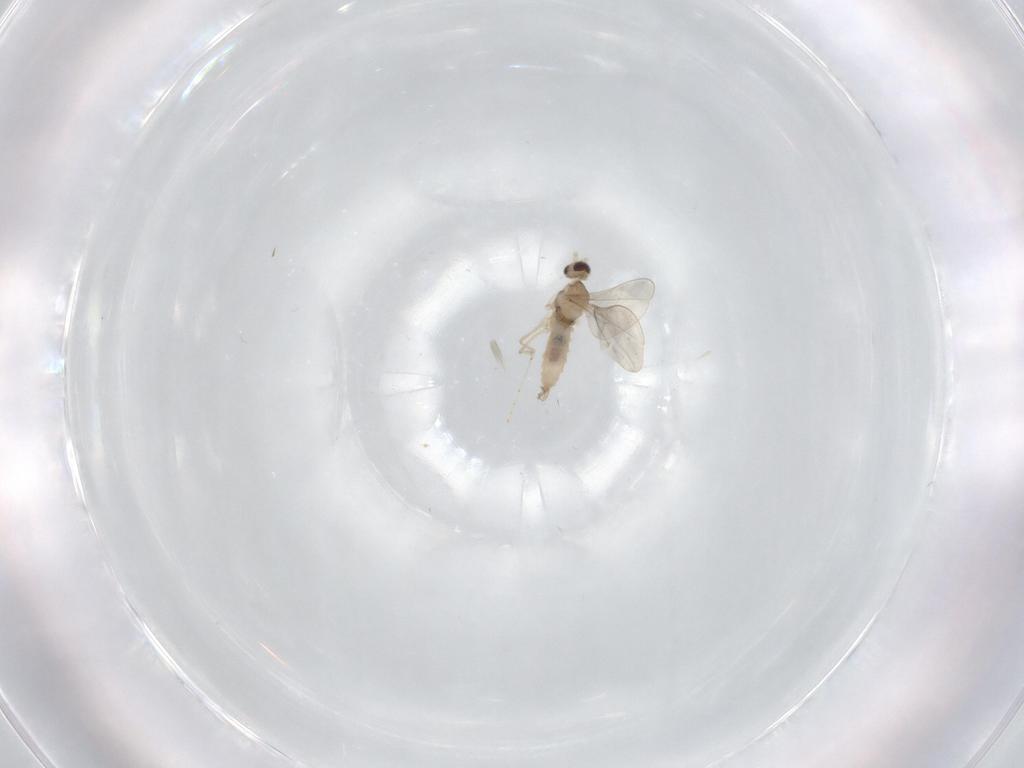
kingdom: Animalia
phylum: Arthropoda
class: Insecta
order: Diptera
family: Cecidomyiidae
